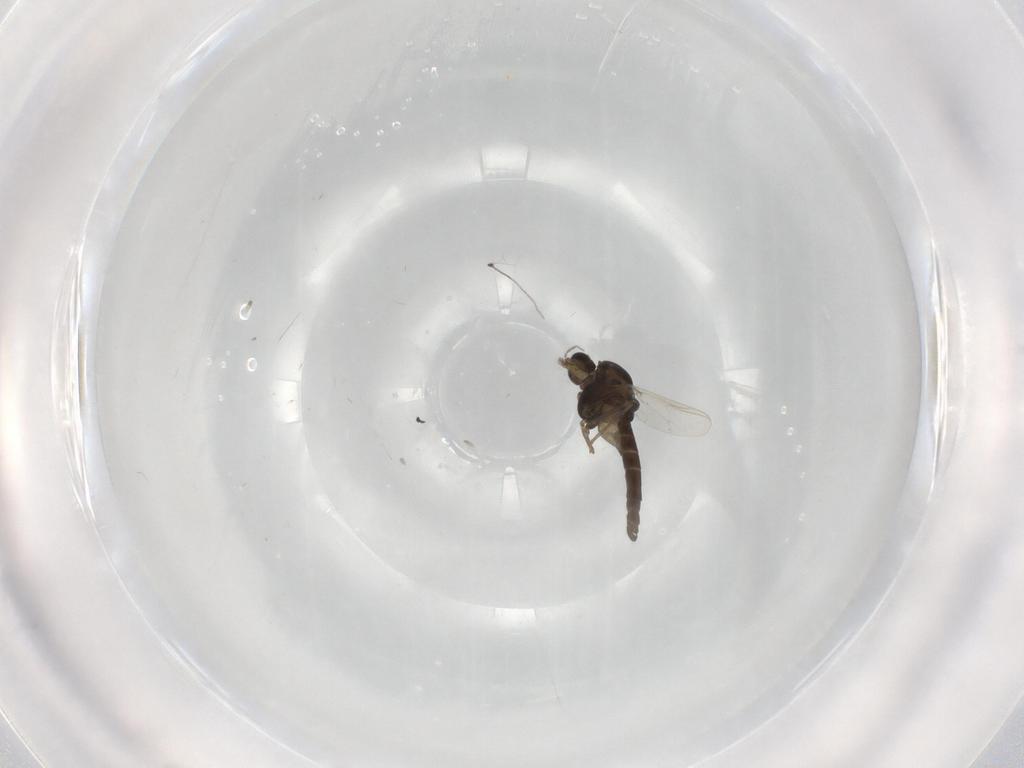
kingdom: Animalia
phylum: Arthropoda
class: Insecta
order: Diptera
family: Chironomidae
